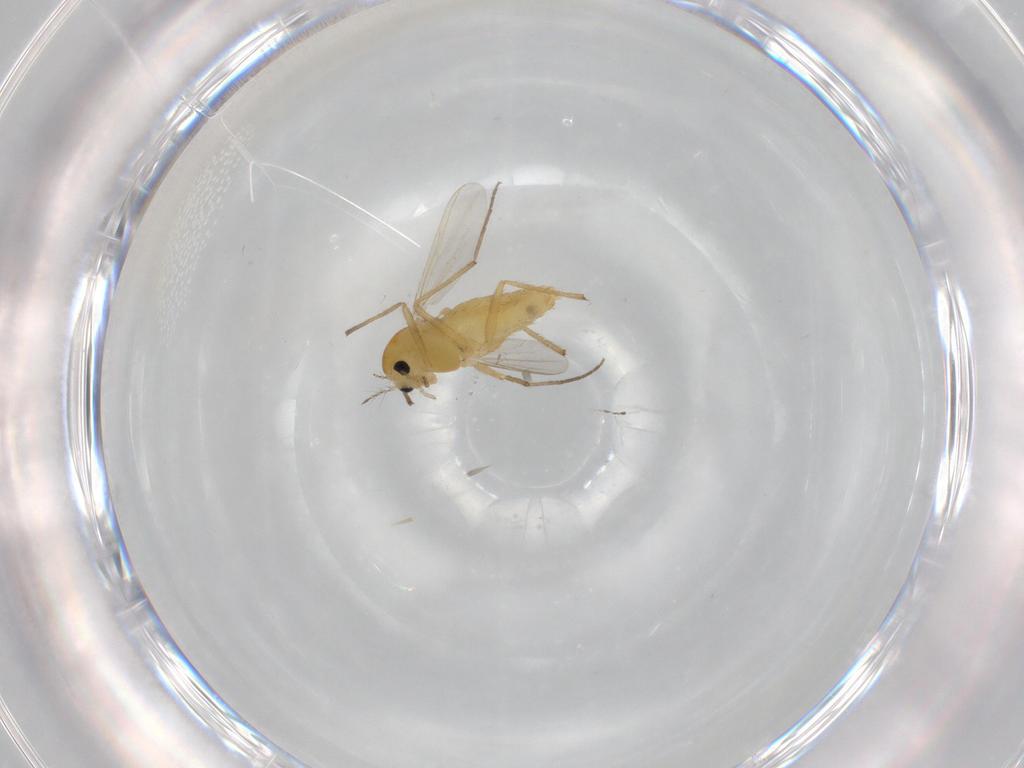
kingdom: Animalia
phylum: Arthropoda
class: Insecta
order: Diptera
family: Chironomidae
